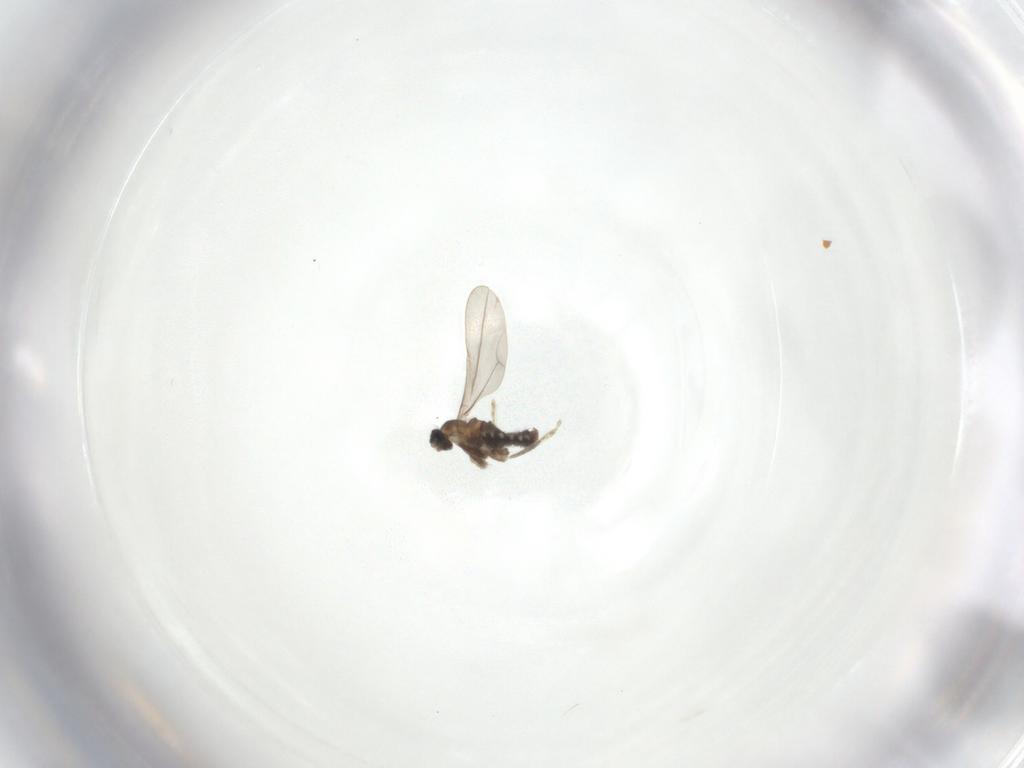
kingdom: Animalia
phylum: Arthropoda
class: Insecta
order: Diptera
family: Cecidomyiidae
